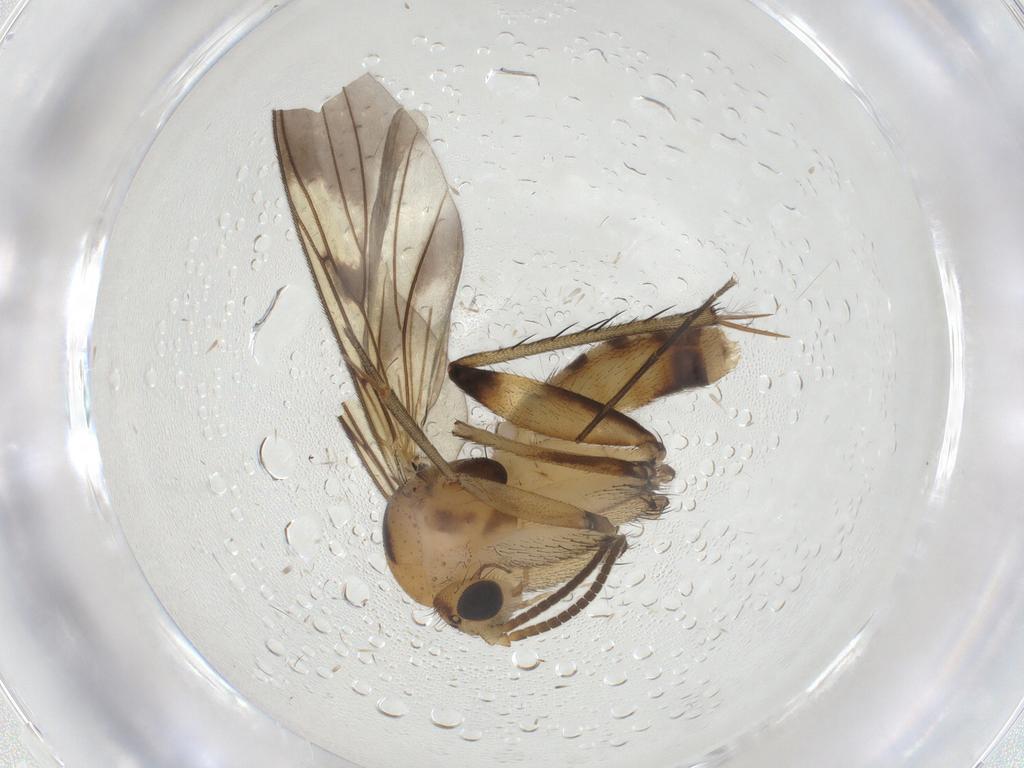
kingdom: Animalia
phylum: Arthropoda
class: Insecta
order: Diptera
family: Mycetophilidae
